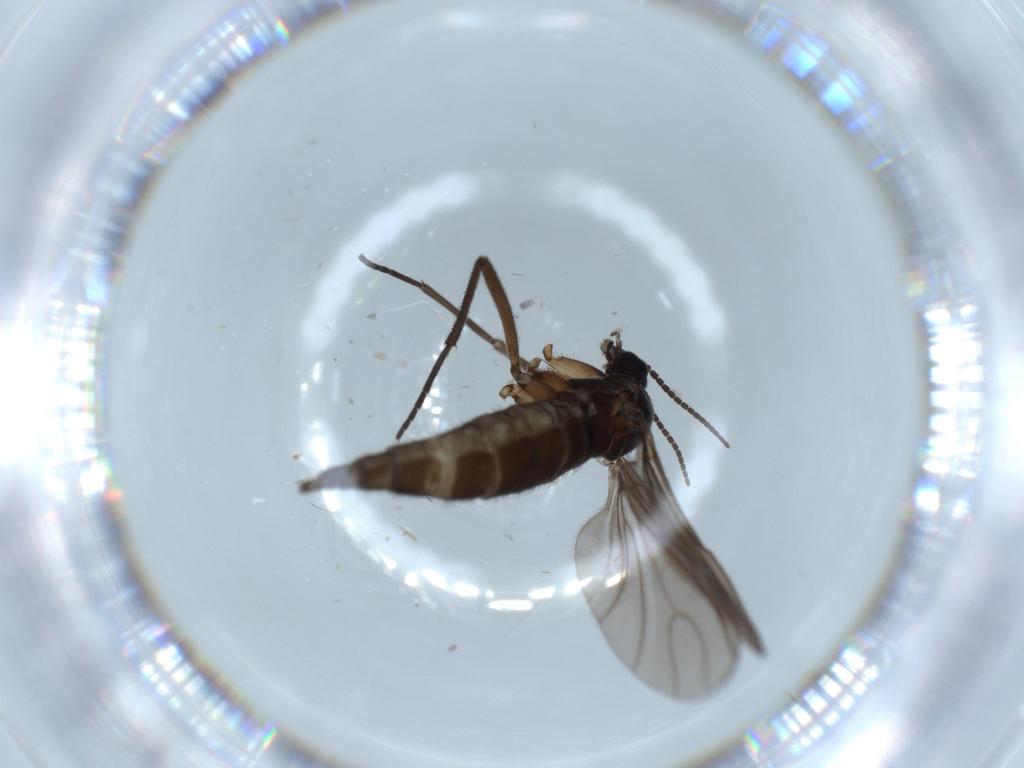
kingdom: Animalia
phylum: Arthropoda
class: Insecta
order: Diptera
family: Sciaridae
